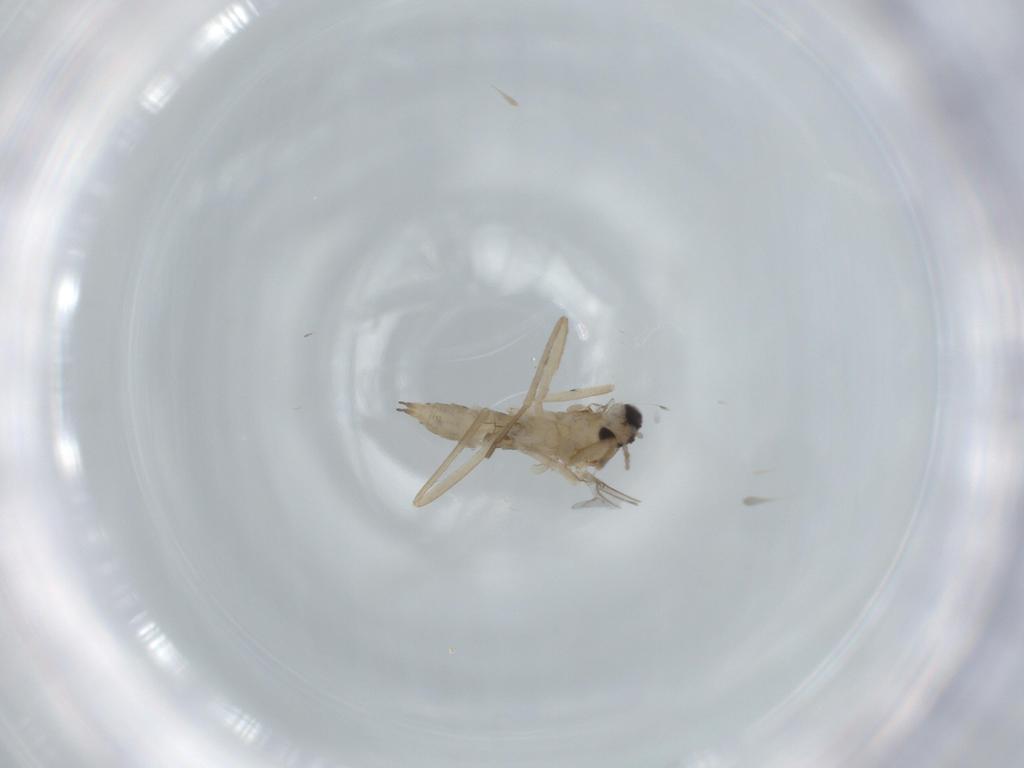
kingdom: Animalia
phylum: Arthropoda
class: Insecta
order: Diptera
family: Cecidomyiidae
